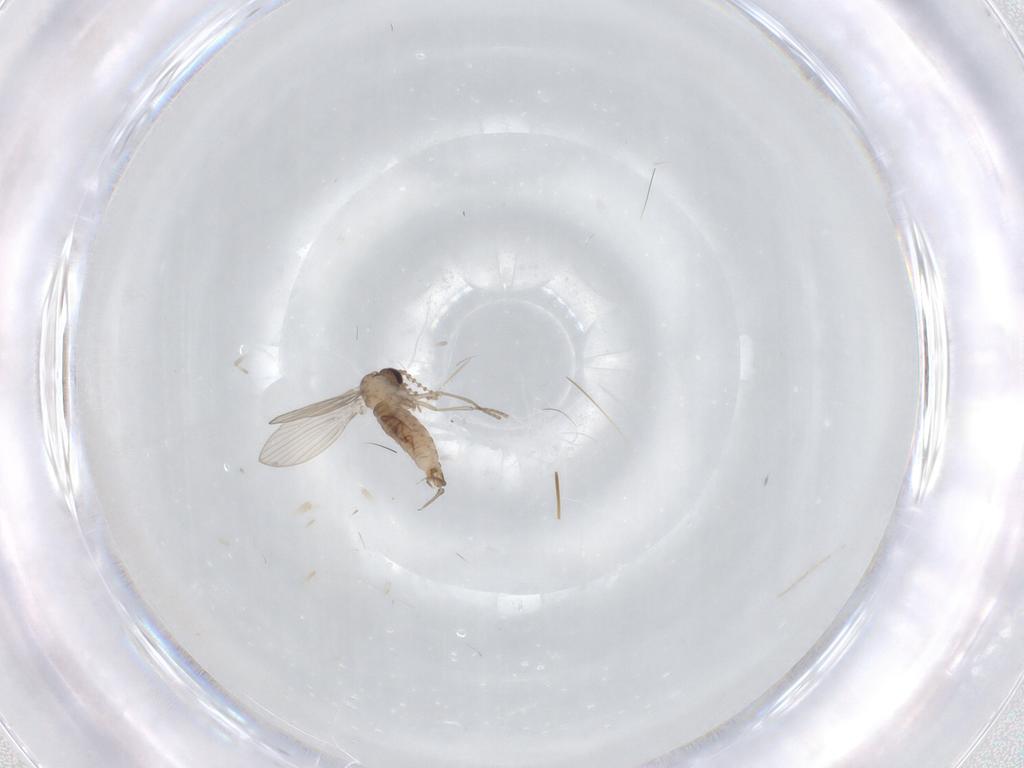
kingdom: Animalia
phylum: Arthropoda
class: Insecta
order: Diptera
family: Psychodidae
